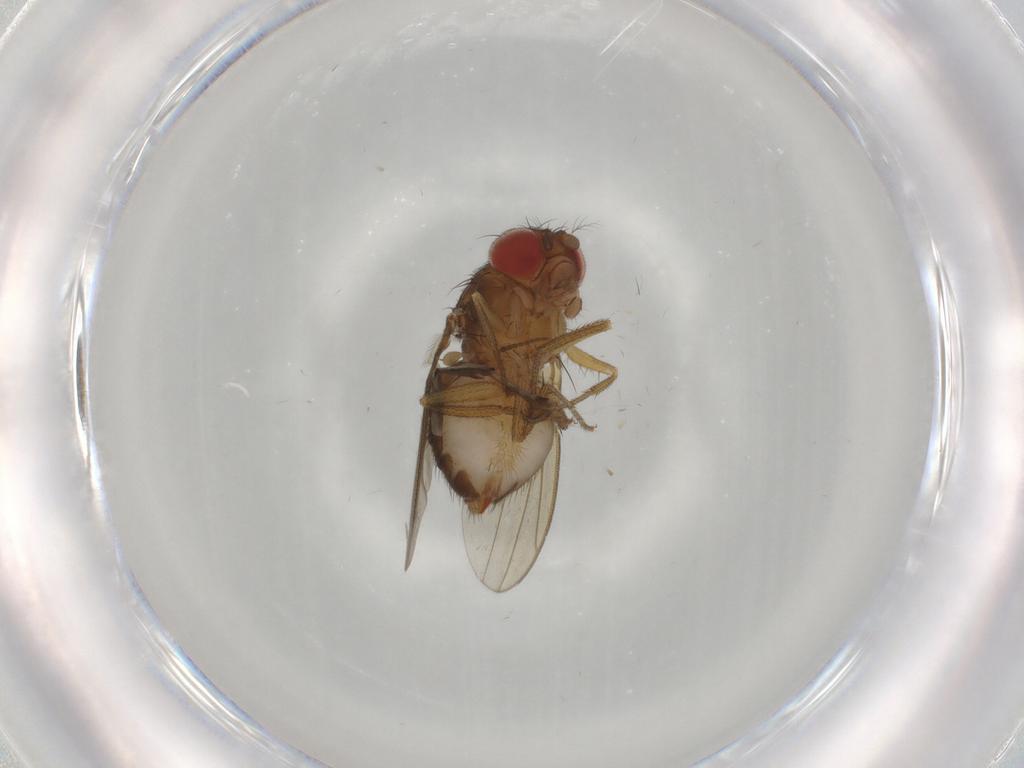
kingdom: Animalia
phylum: Arthropoda
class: Insecta
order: Diptera
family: Drosophilidae
